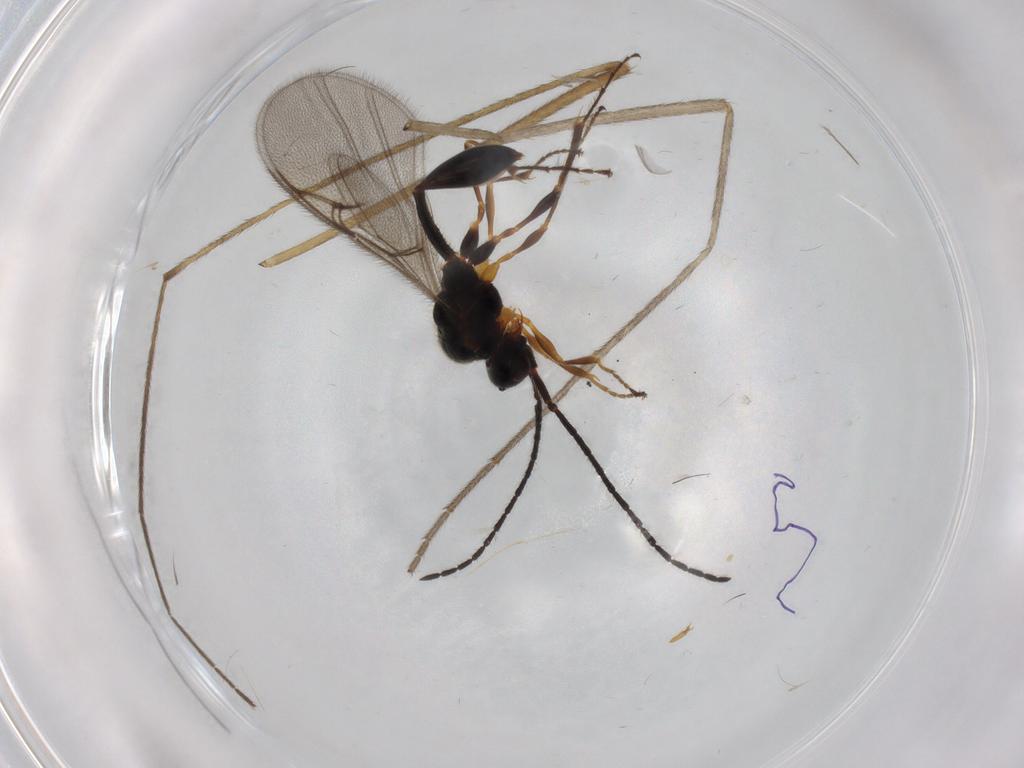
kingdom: Animalia
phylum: Arthropoda
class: Insecta
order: Hymenoptera
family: Diapriidae
